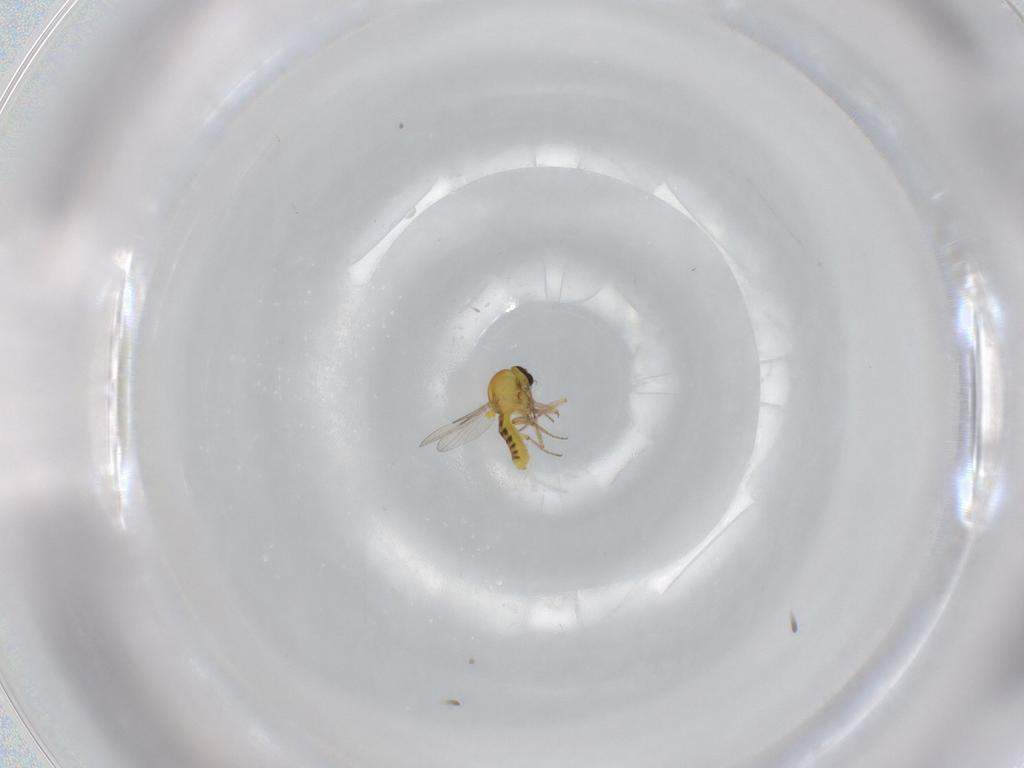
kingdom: Animalia
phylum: Arthropoda
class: Insecta
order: Diptera
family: Ceratopogonidae
